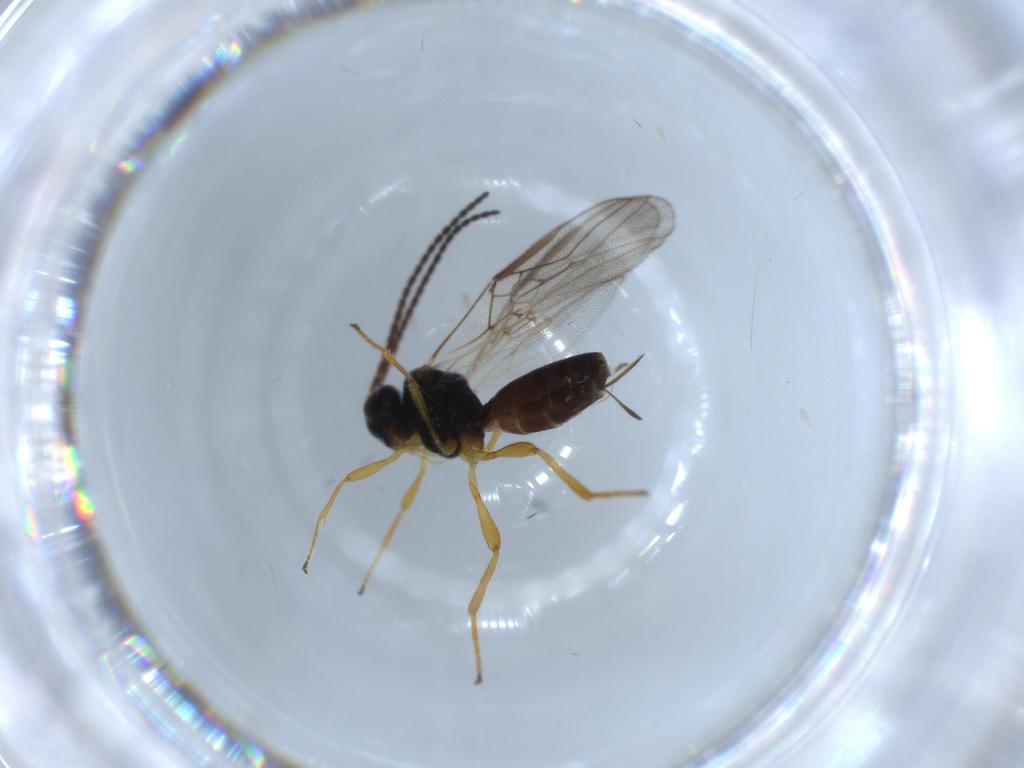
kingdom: Animalia
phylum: Arthropoda
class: Insecta
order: Hymenoptera
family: Braconidae
